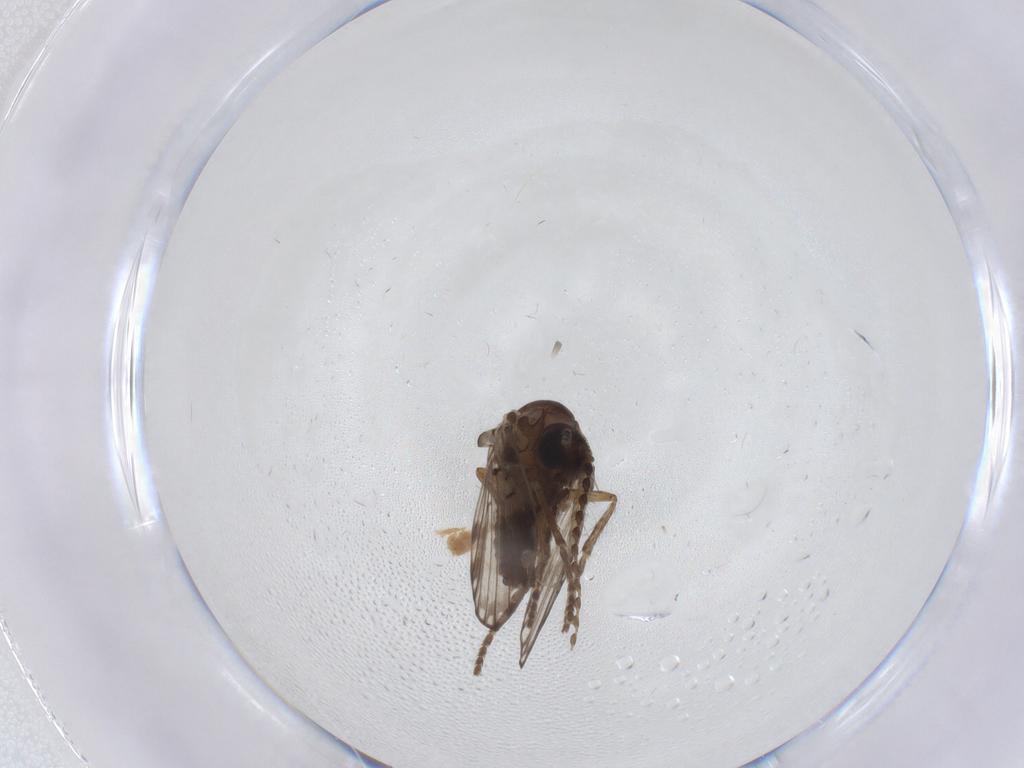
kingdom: Animalia
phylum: Arthropoda
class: Insecta
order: Diptera
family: Psychodidae
